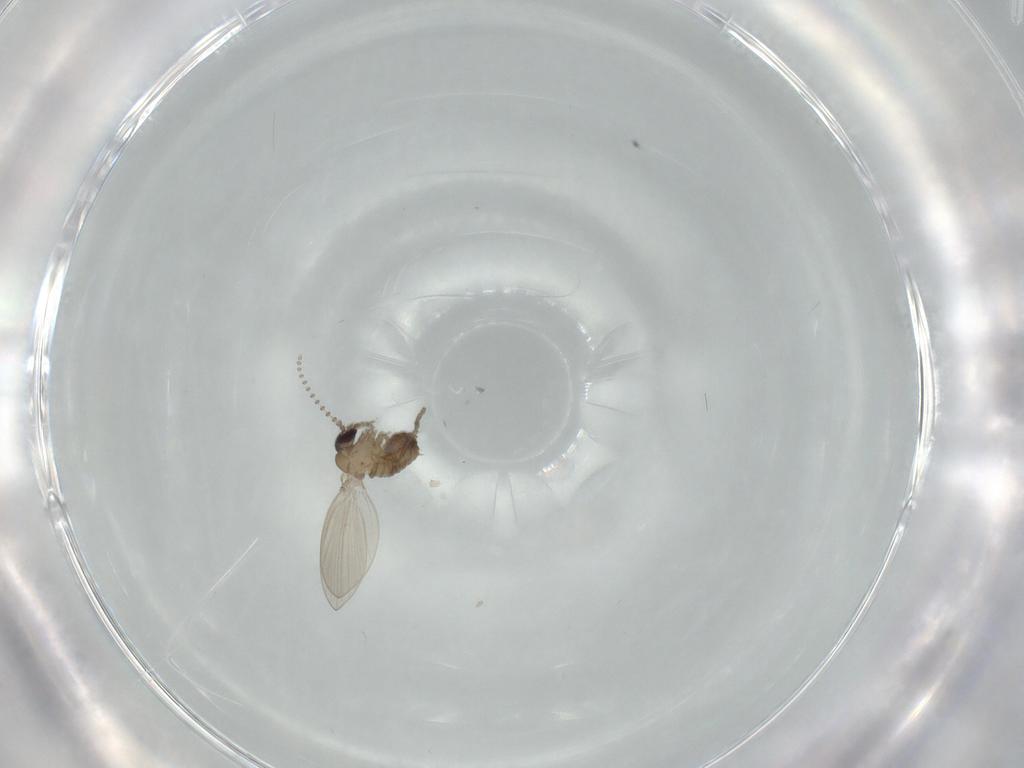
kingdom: Animalia
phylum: Arthropoda
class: Insecta
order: Diptera
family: Psychodidae
